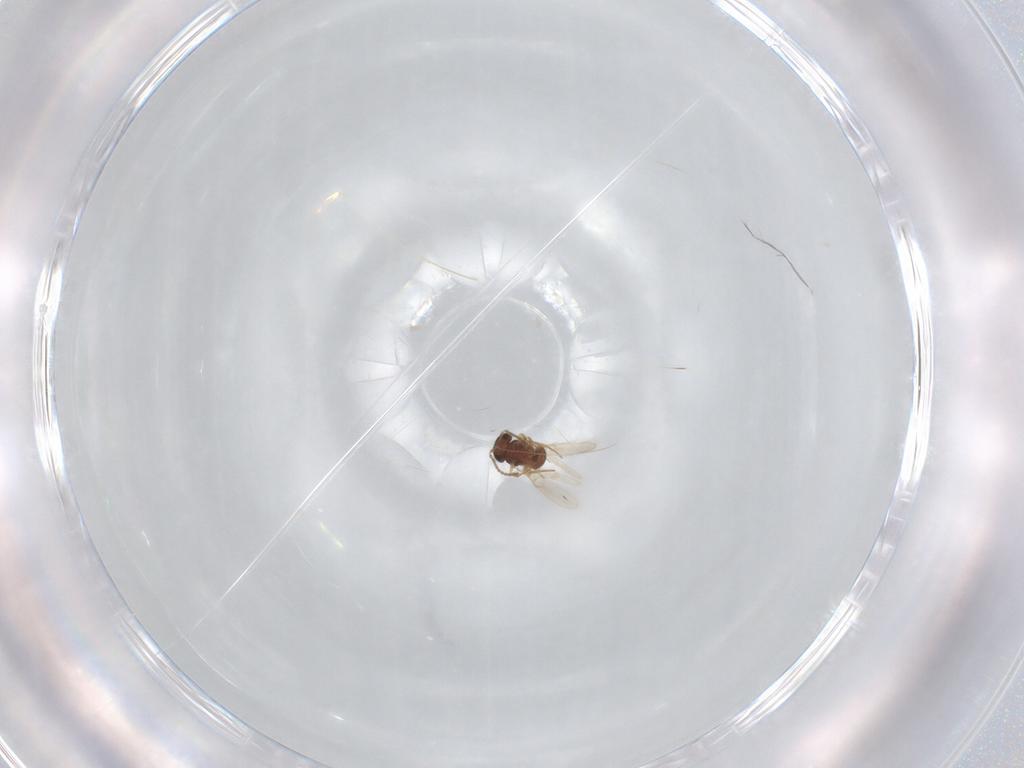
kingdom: Animalia
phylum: Arthropoda
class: Insecta
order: Hymenoptera
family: Scelionidae
